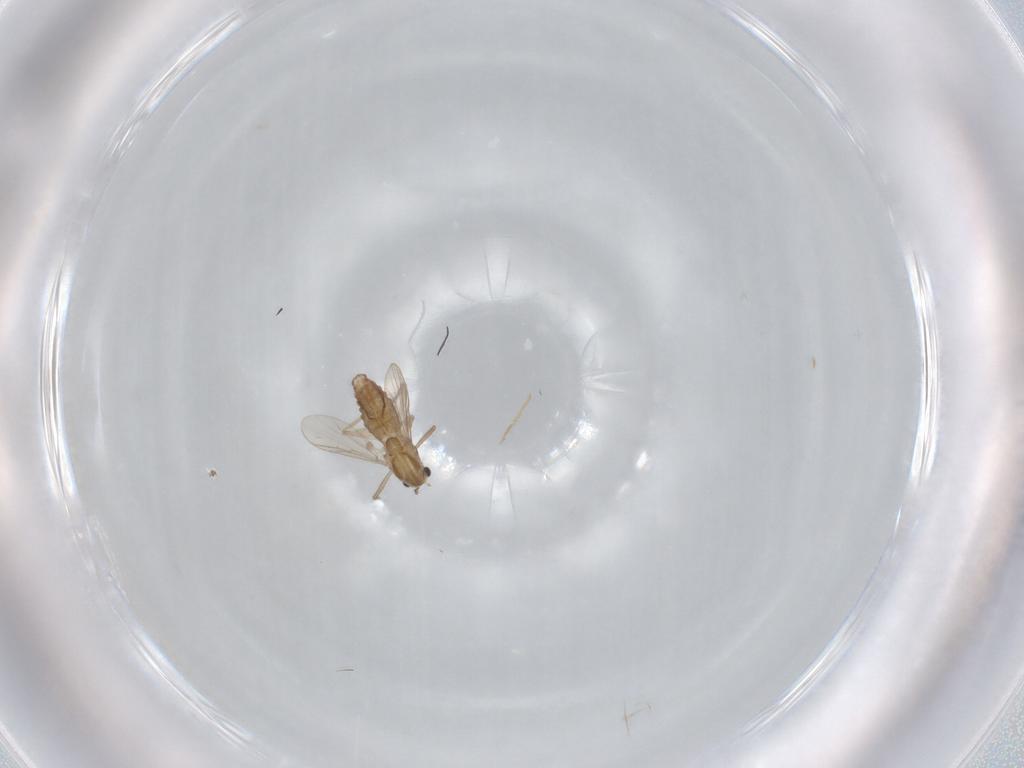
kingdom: Animalia
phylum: Arthropoda
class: Insecta
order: Diptera
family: Chironomidae
